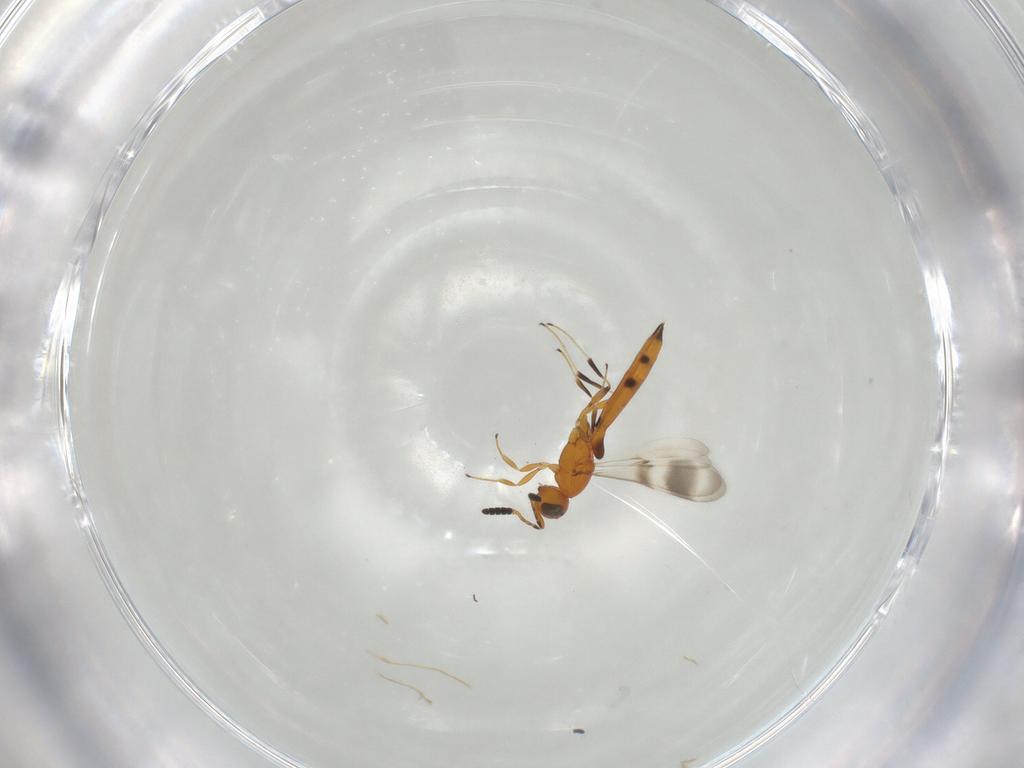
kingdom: Animalia
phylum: Arthropoda
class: Insecta
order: Hymenoptera
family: Scelionidae
